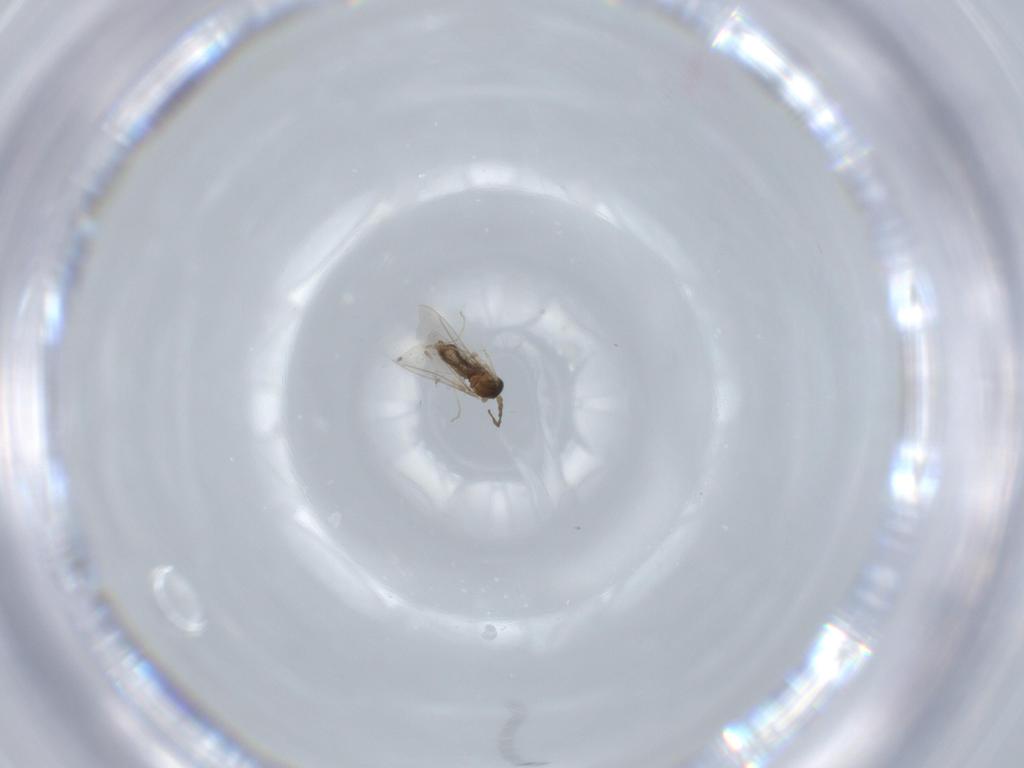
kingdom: Animalia
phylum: Arthropoda
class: Insecta
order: Diptera
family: Cecidomyiidae
